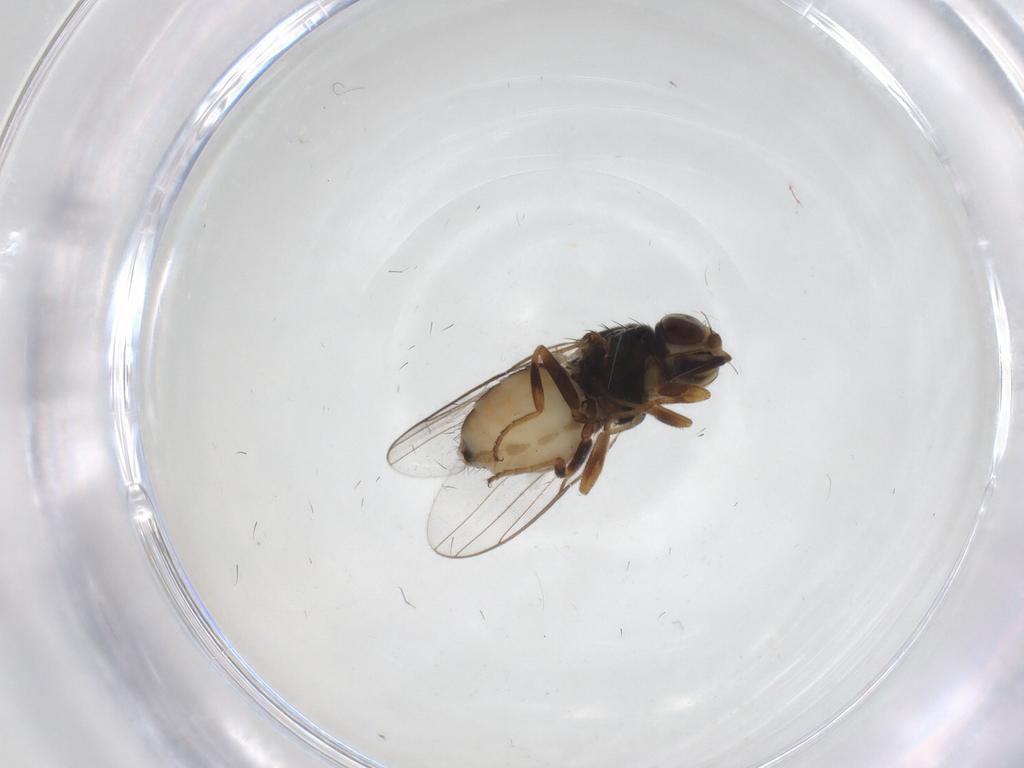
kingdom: Animalia
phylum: Arthropoda
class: Insecta
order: Diptera
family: Chloropidae
